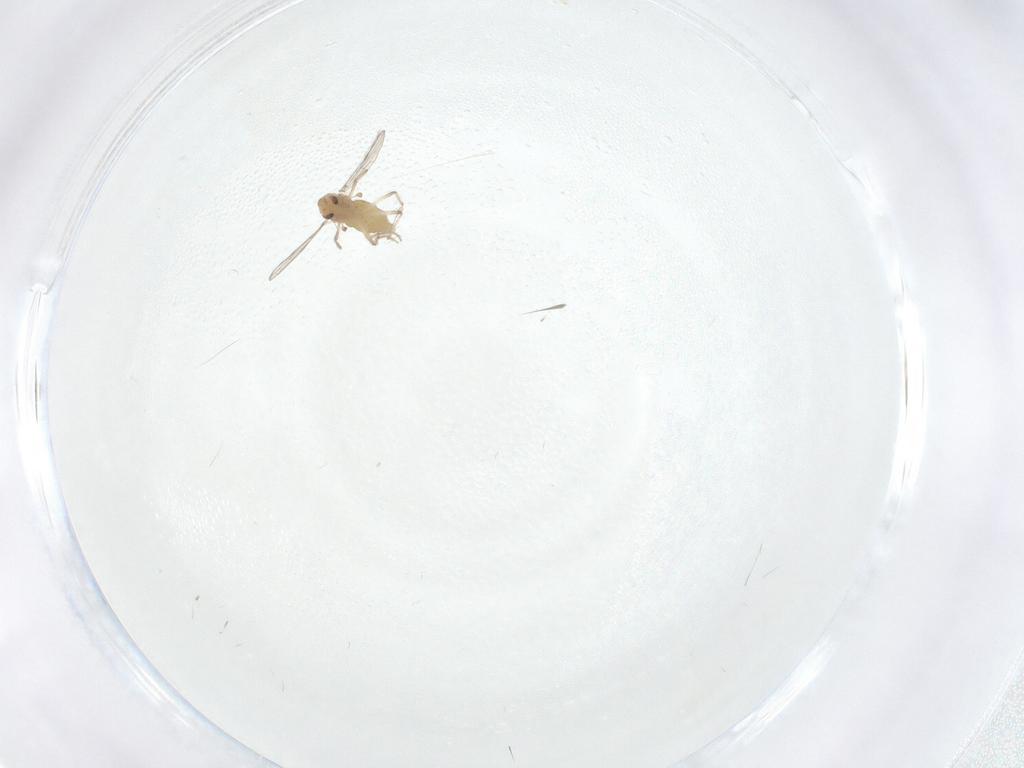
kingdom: Animalia
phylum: Arthropoda
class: Insecta
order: Diptera
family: Chironomidae
